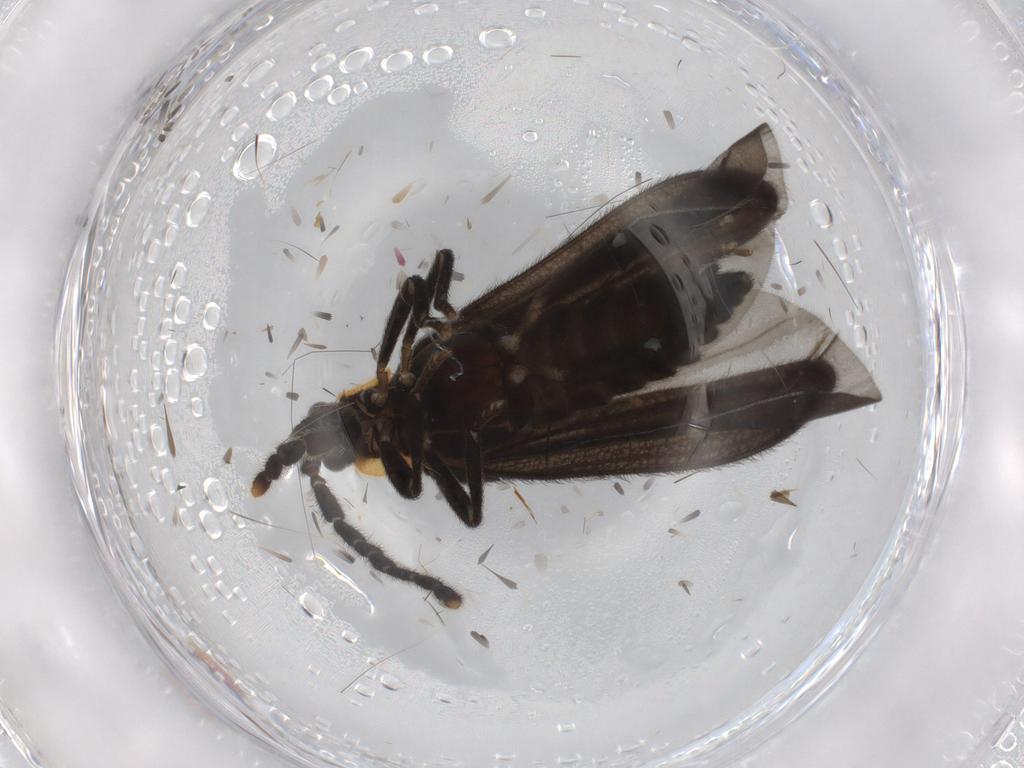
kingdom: Animalia
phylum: Arthropoda
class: Insecta
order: Coleoptera
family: Lycidae
